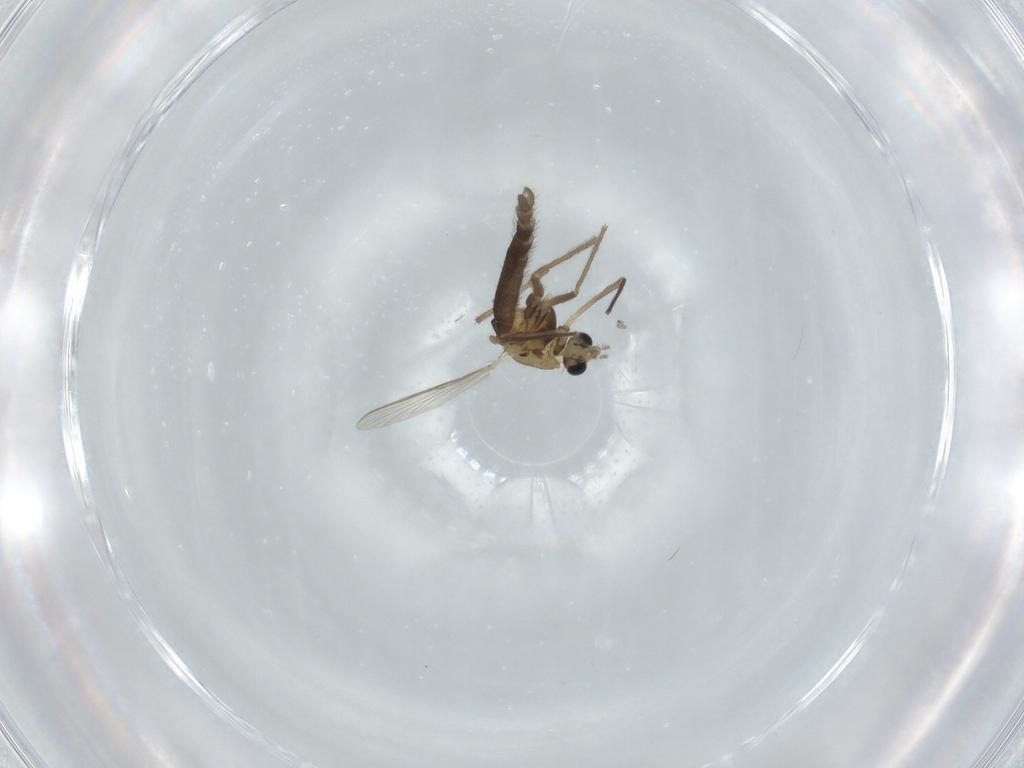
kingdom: Animalia
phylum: Arthropoda
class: Insecta
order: Diptera
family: Chironomidae
